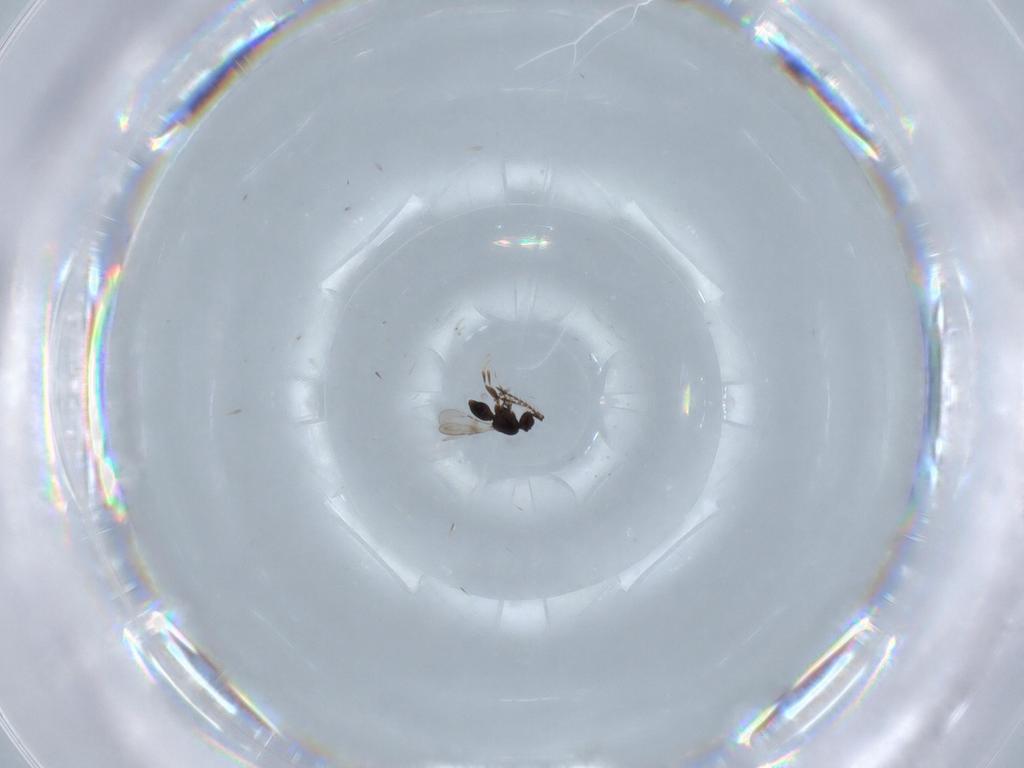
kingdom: Animalia
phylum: Arthropoda
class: Insecta
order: Hymenoptera
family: Ceraphronidae
